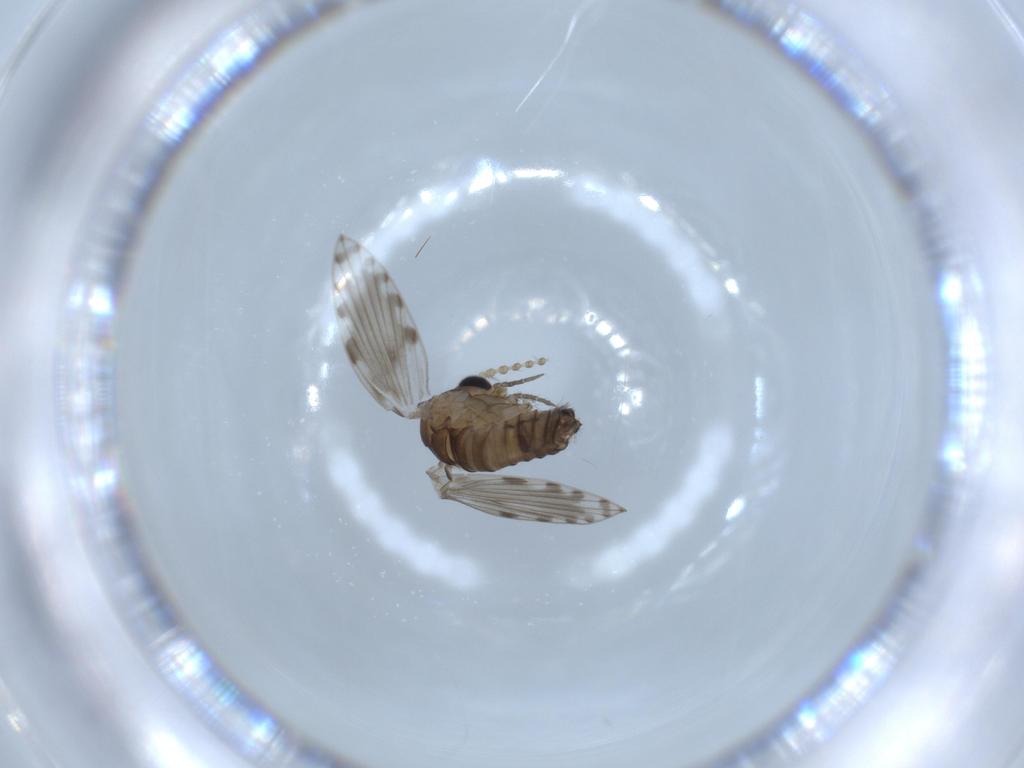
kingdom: Animalia
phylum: Arthropoda
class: Insecta
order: Diptera
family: Psychodidae
